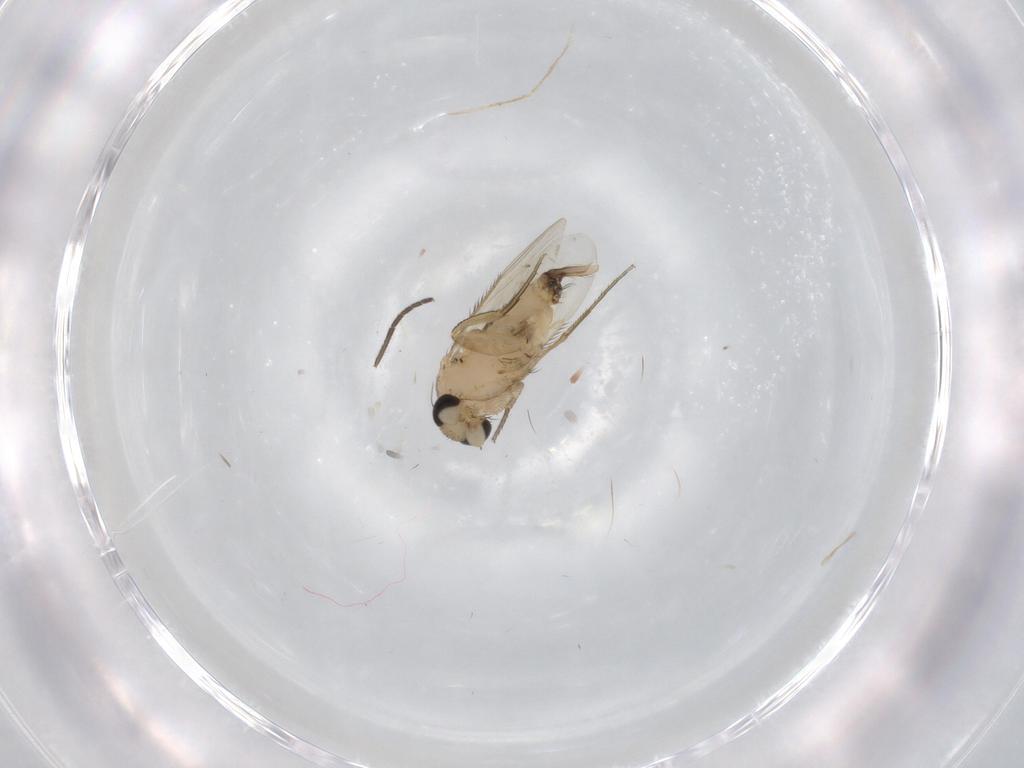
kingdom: Animalia
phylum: Arthropoda
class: Insecta
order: Diptera
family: Phoridae
